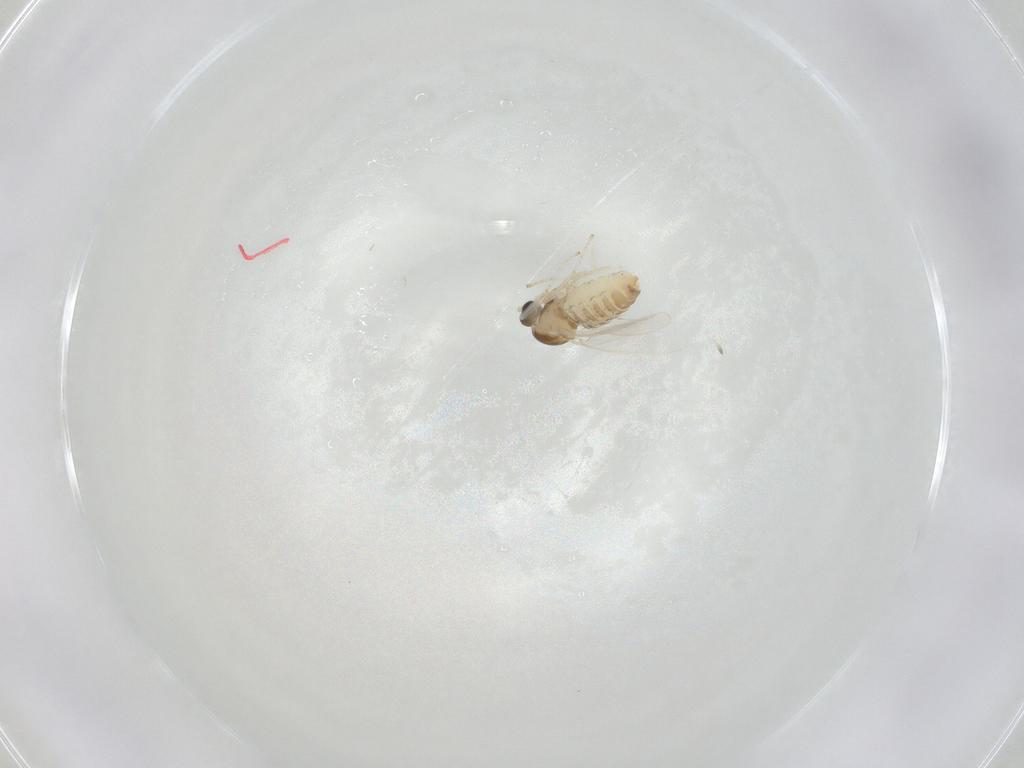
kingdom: Animalia
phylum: Arthropoda
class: Insecta
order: Diptera
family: Cecidomyiidae
